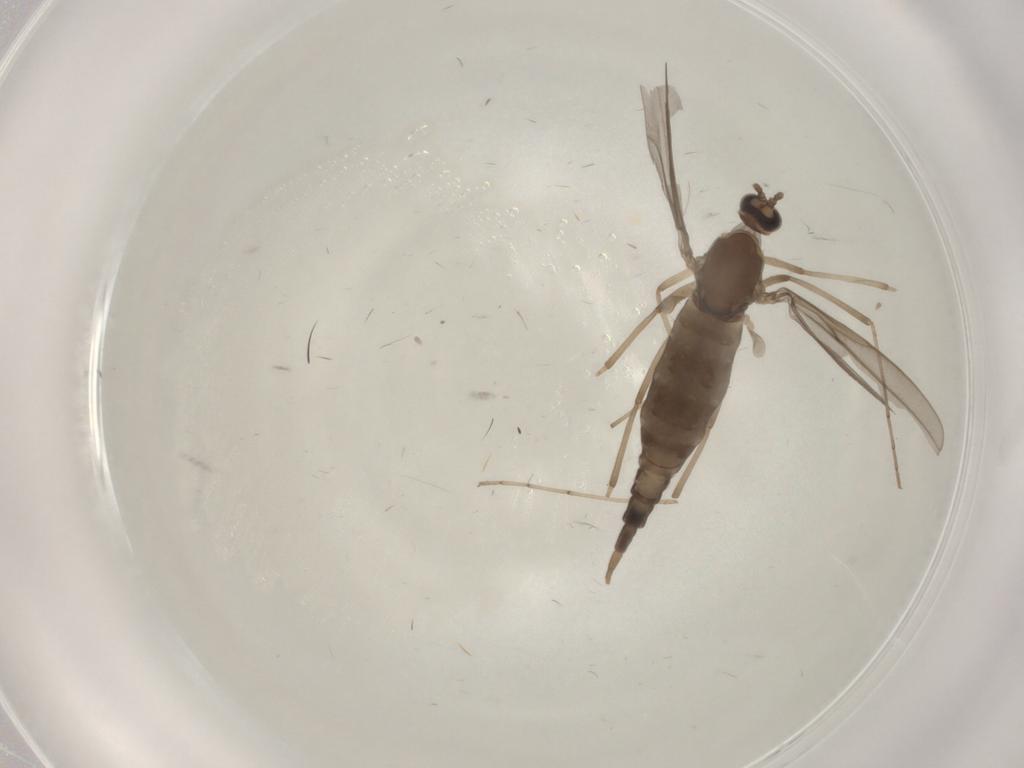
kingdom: Animalia
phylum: Arthropoda
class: Insecta
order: Diptera
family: Cecidomyiidae
